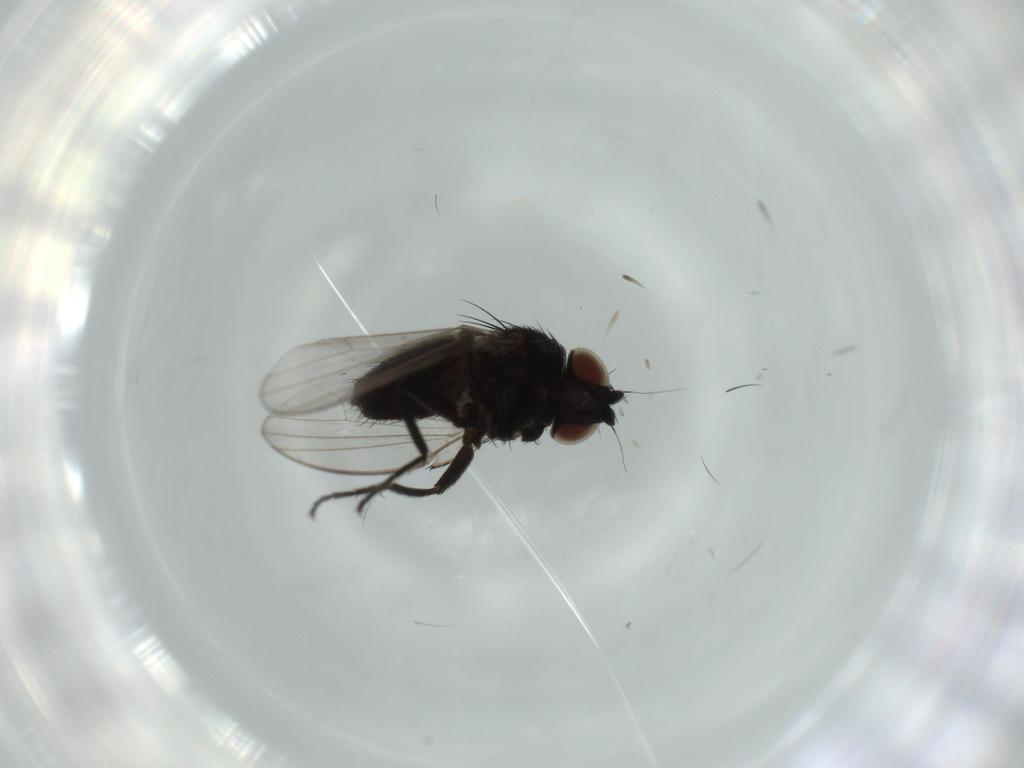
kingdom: Animalia
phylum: Arthropoda
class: Insecta
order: Diptera
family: Milichiidae
